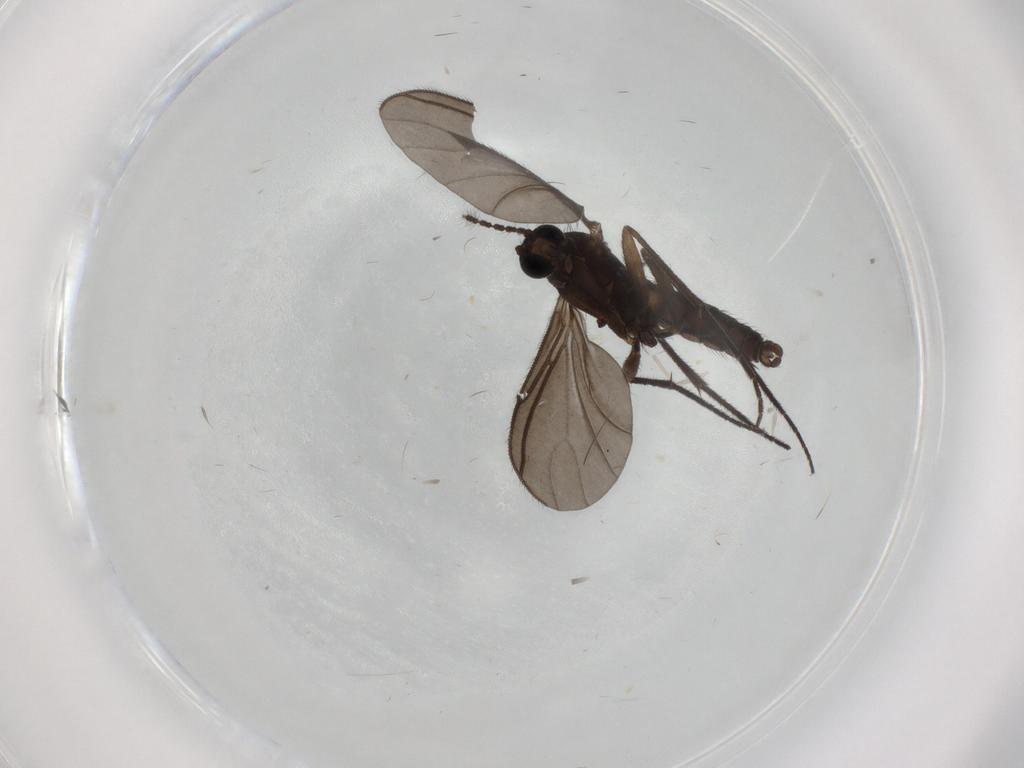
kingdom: Animalia
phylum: Arthropoda
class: Insecta
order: Diptera
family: Sciaridae
